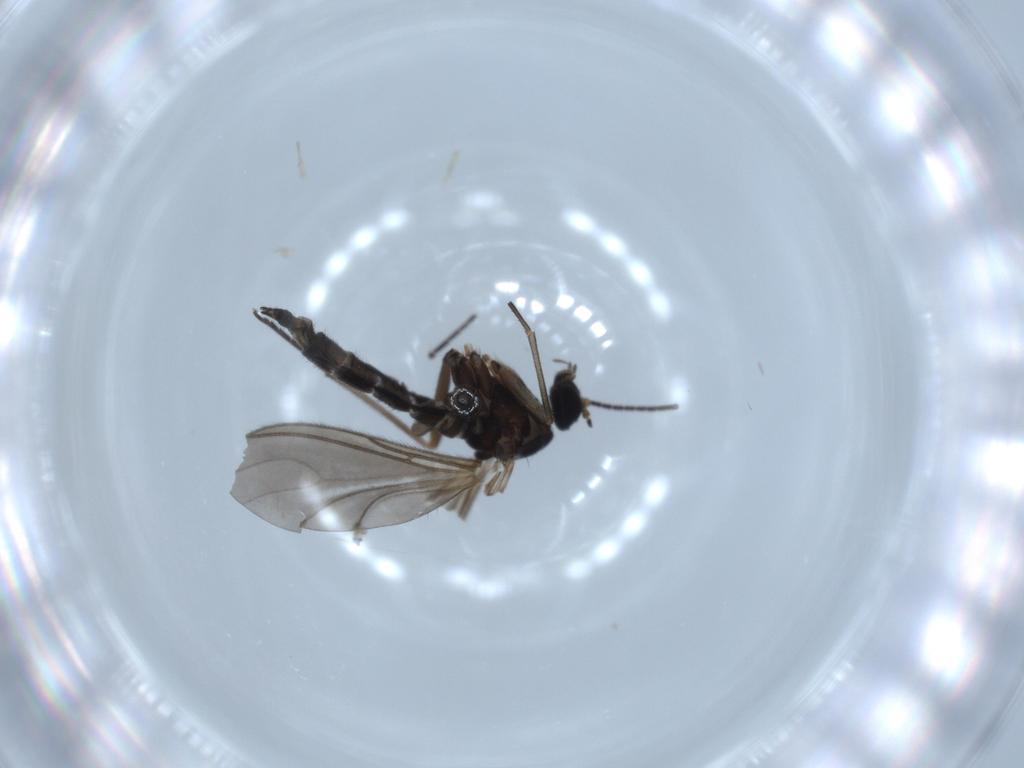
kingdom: Animalia
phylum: Arthropoda
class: Insecta
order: Diptera
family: Sciaridae
